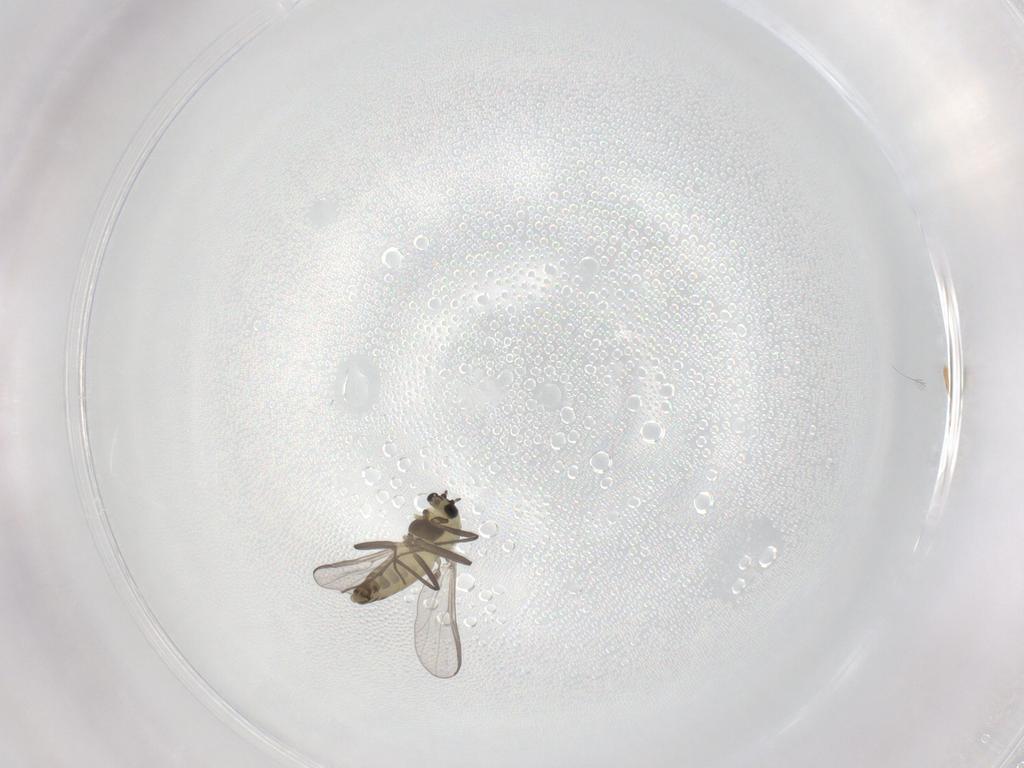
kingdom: Animalia
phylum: Arthropoda
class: Insecta
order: Diptera
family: Chironomidae
